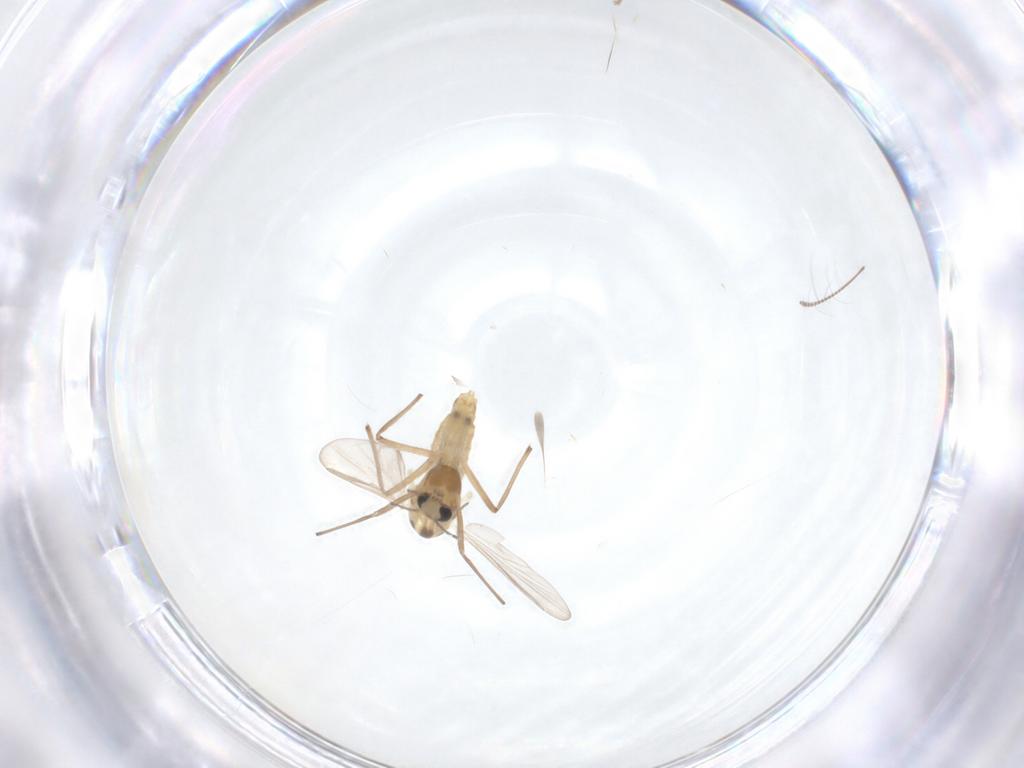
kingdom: Animalia
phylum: Arthropoda
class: Insecta
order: Diptera
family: Chironomidae
